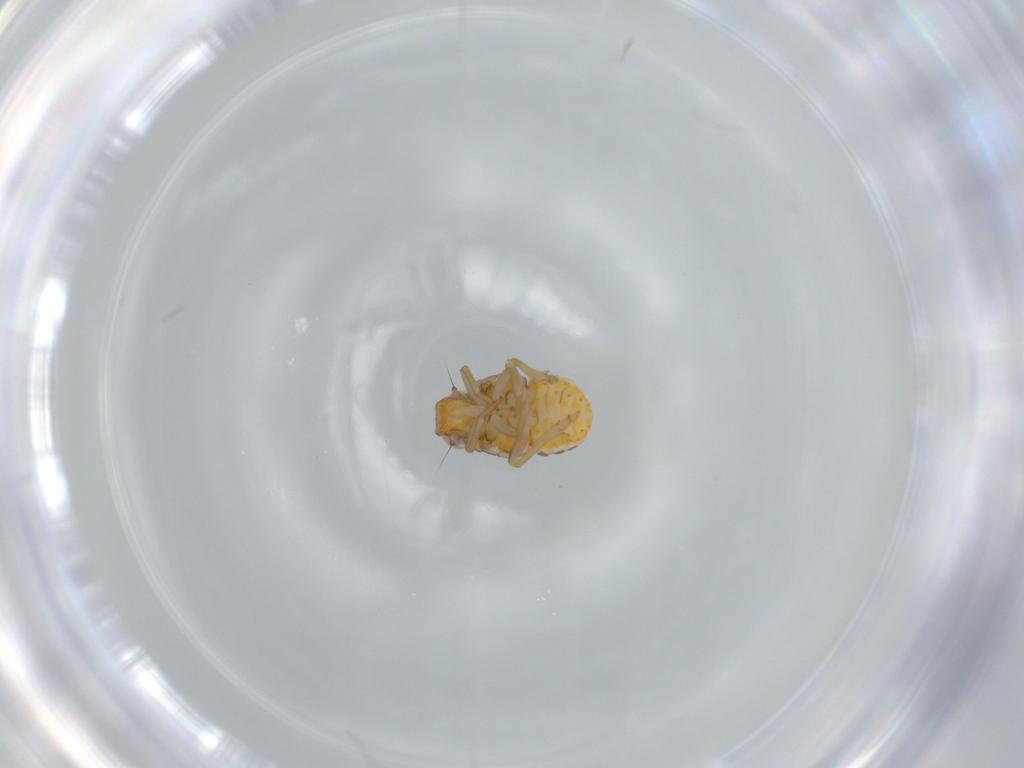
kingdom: Animalia
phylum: Arthropoda
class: Insecta
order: Hemiptera
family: Issidae
